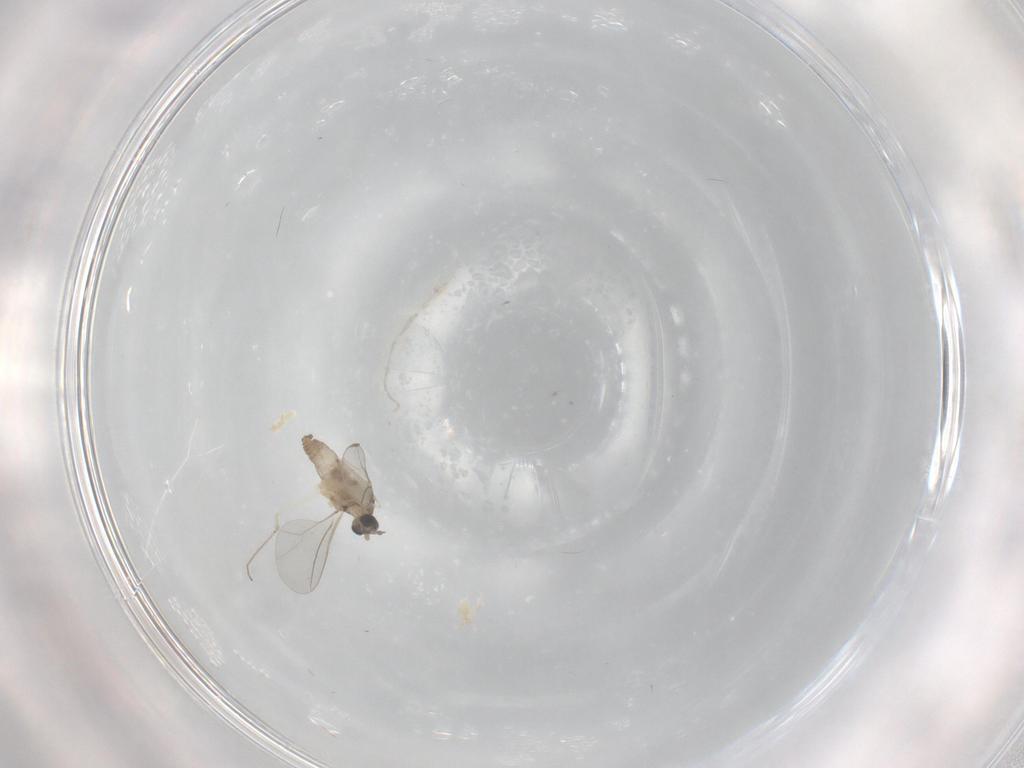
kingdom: Animalia
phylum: Arthropoda
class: Insecta
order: Diptera
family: Cecidomyiidae
